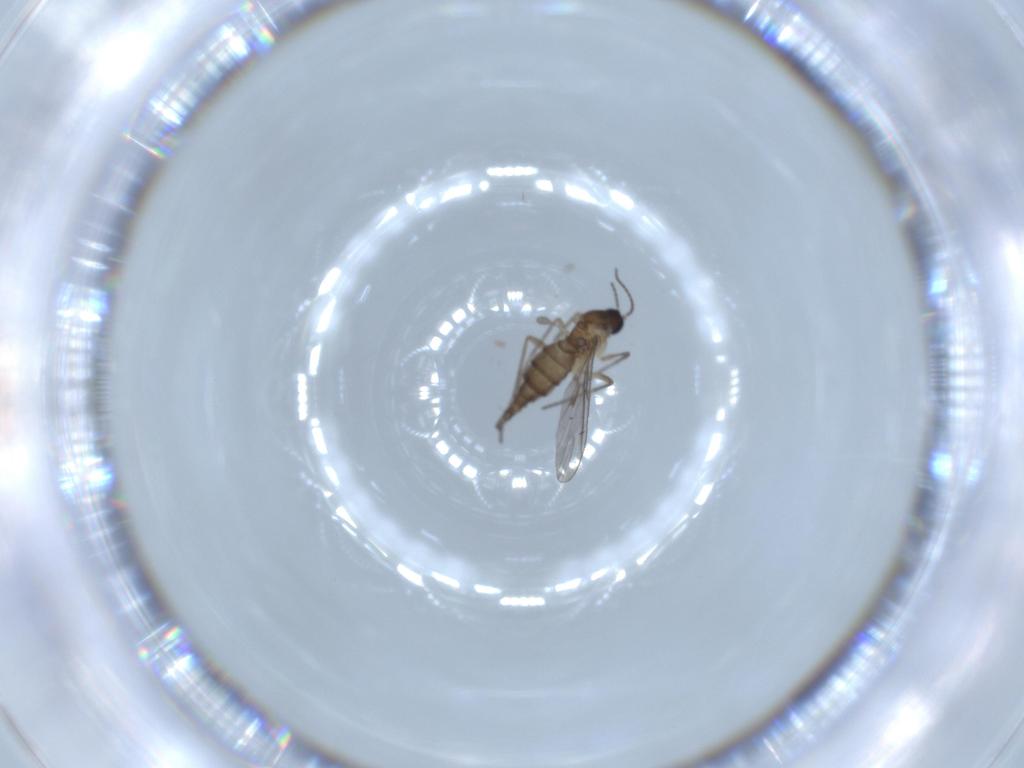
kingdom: Animalia
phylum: Arthropoda
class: Insecta
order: Diptera
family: Sciaridae
